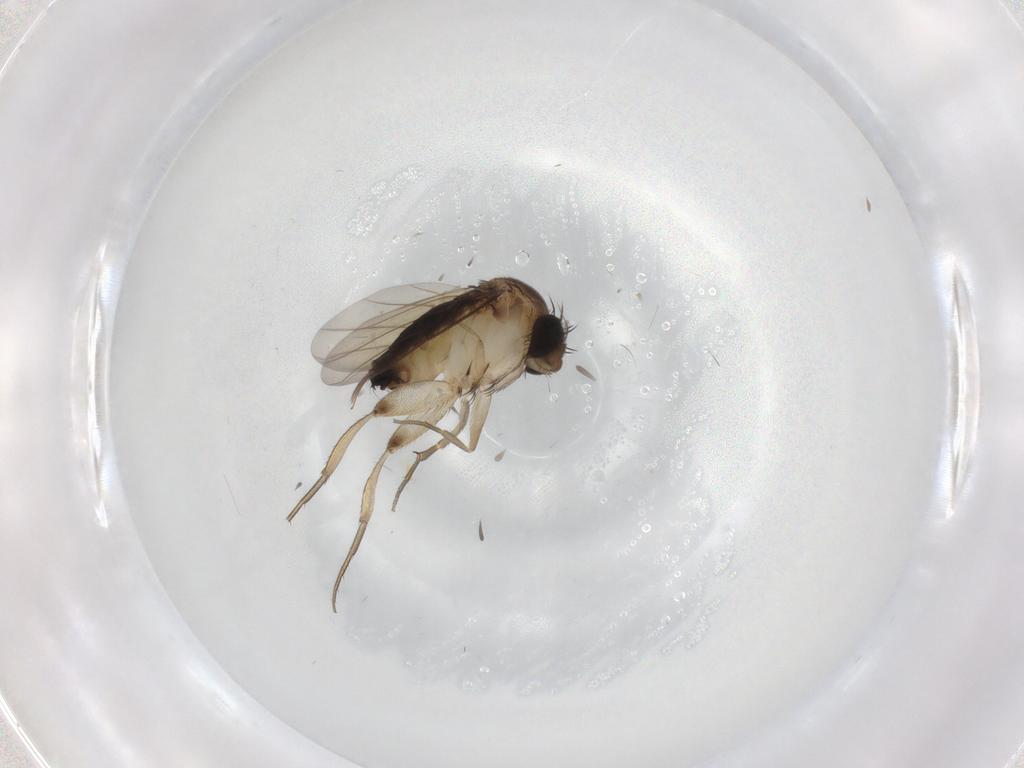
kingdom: Animalia
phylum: Arthropoda
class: Insecta
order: Diptera
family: Phoridae
